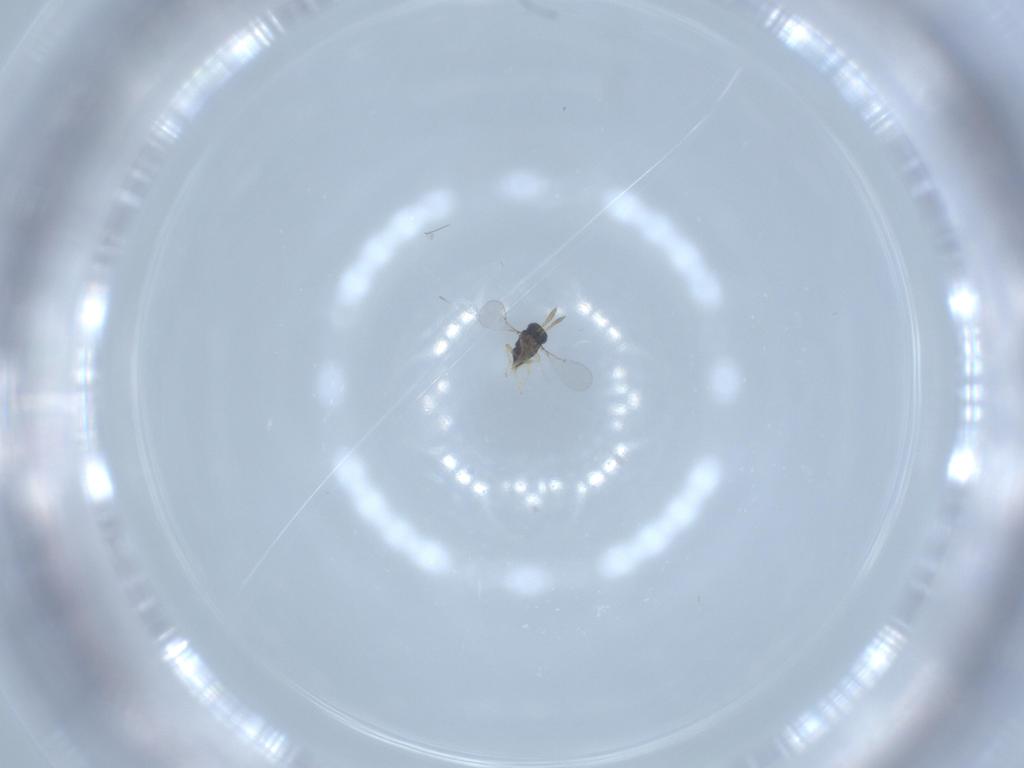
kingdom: Animalia
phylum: Arthropoda
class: Insecta
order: Hymenoptera
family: Encyrtidae
